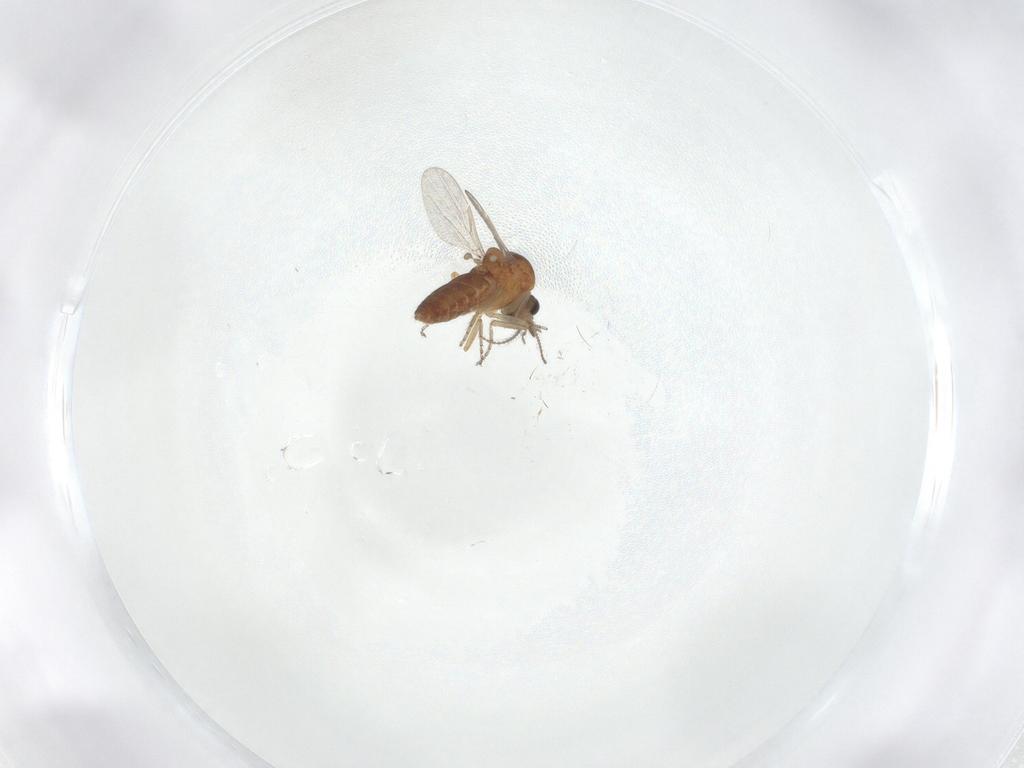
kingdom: Animalia
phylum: Arthropoda
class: Insecta
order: Diptera
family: Ceratopogonidae
